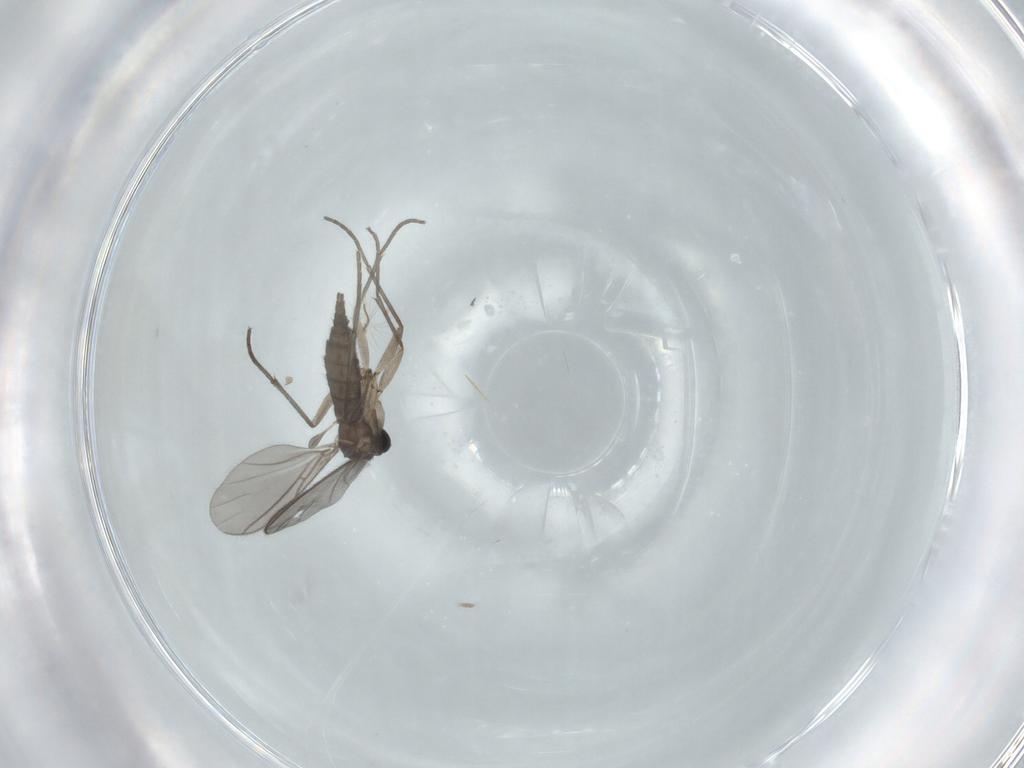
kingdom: Animalia
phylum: Arthropoda
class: Insecta
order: Diptera
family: Sciaridae
